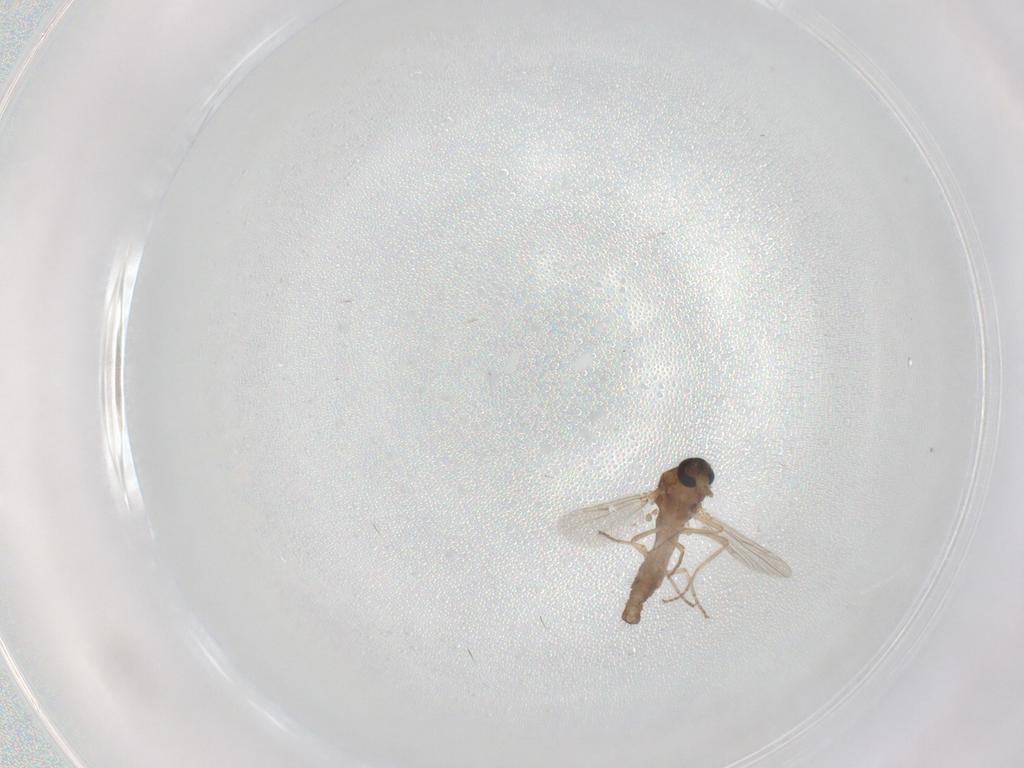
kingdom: Animalia
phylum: Arthropoda
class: Insecta
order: Diptera
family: Ceratopogonidae
